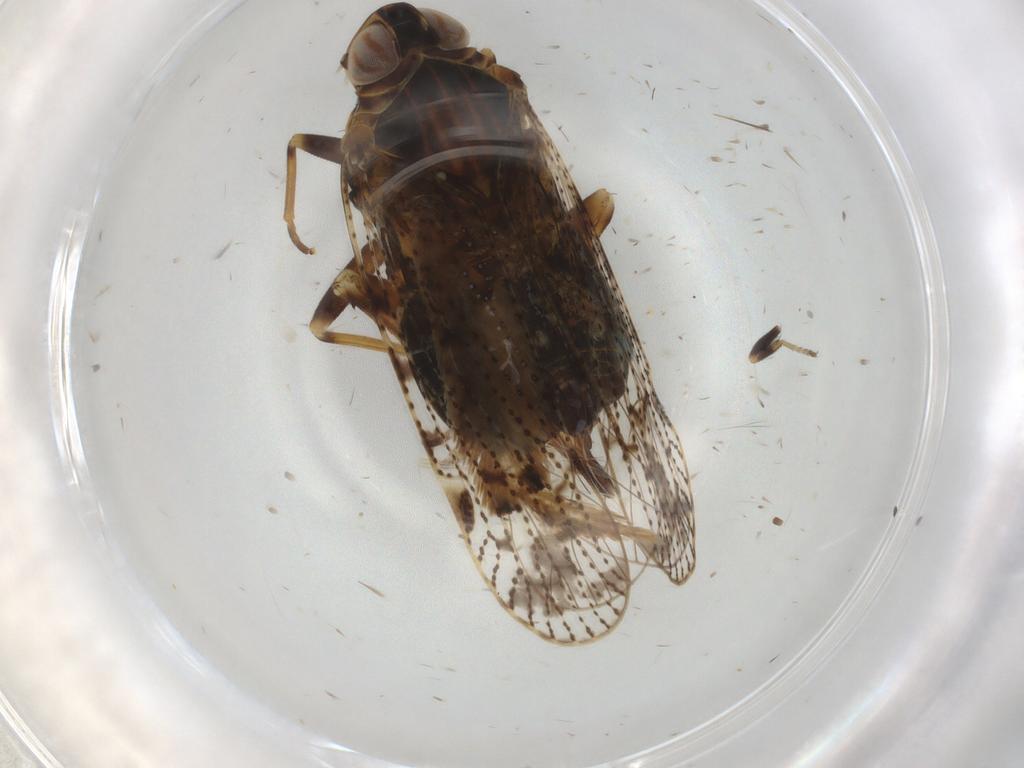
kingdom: Animalia
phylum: Arthropoda
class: Insecta
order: Hemiptera
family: Cixiidae
